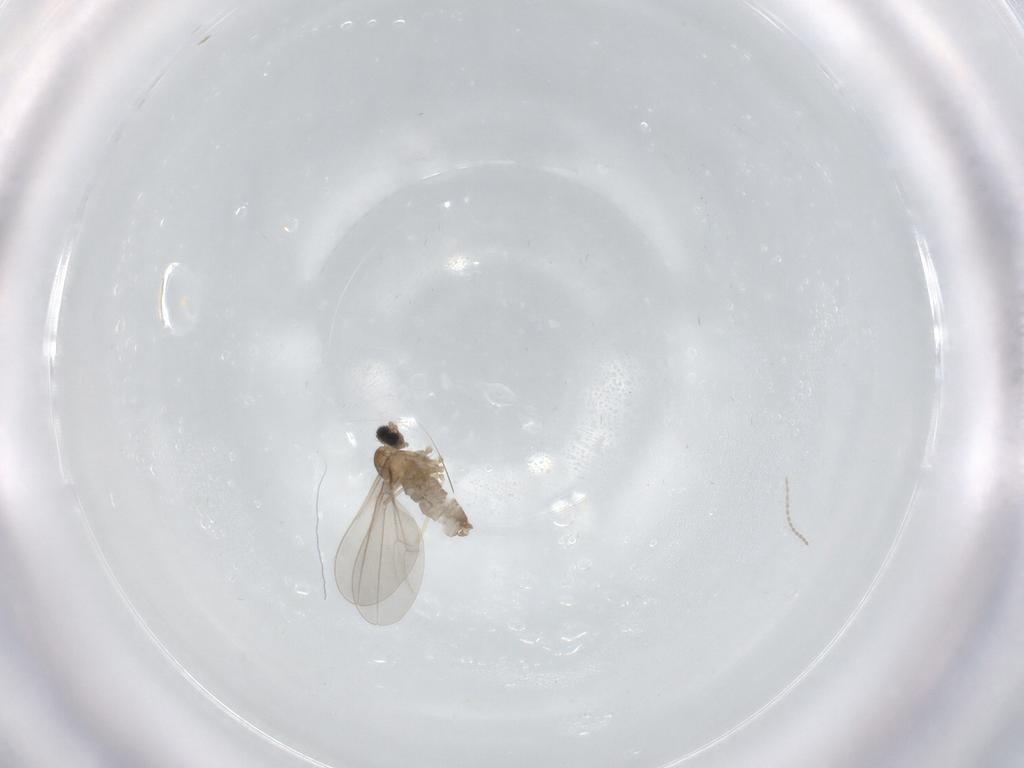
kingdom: Animalia
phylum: Arthropoda
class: Insecta
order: Diptera
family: Cecidomyiidae
